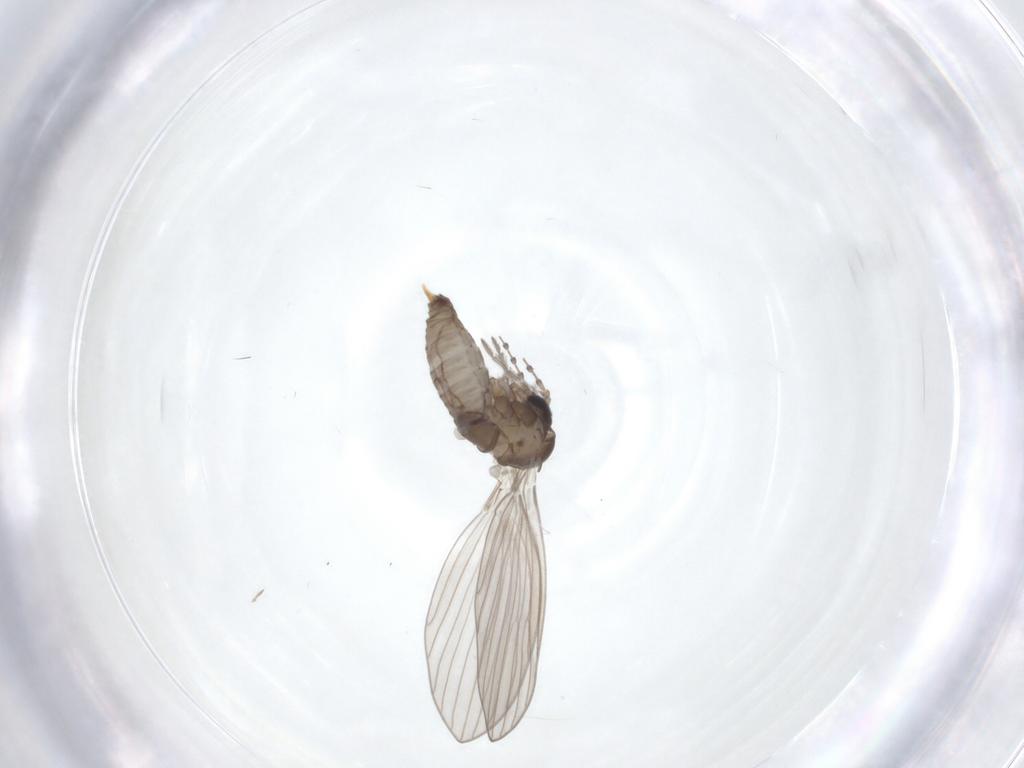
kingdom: Animalia
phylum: Arthropoda
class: Insecta
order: Diptera
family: Psychodidae
